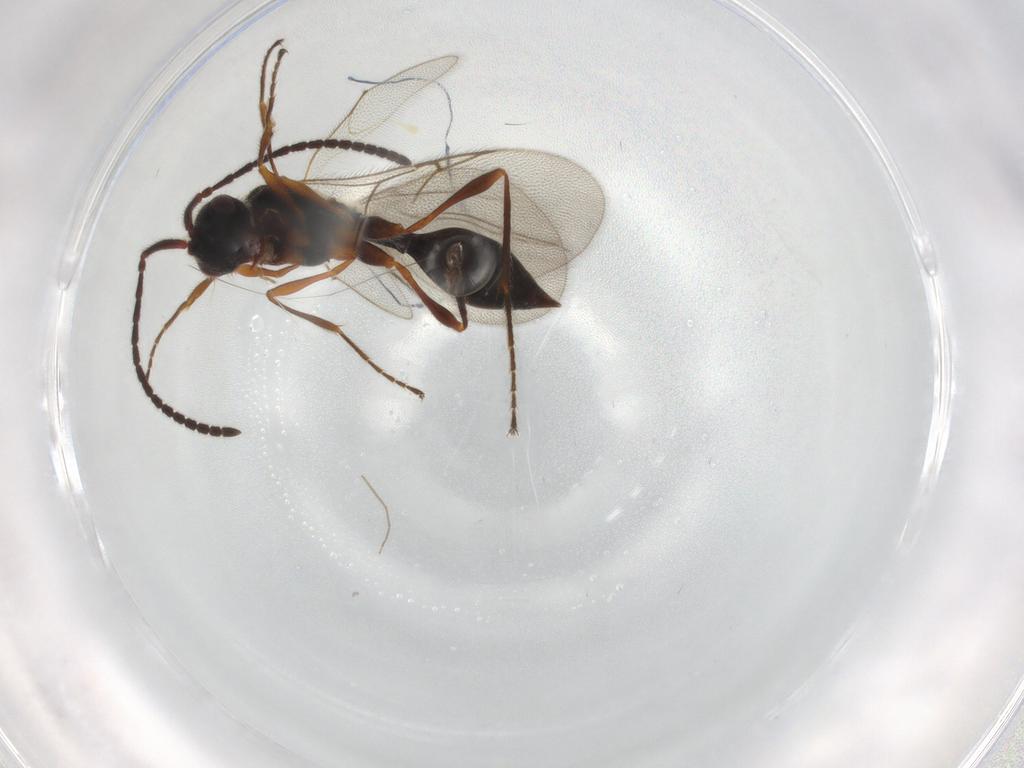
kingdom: Animalia
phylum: Arthropoda
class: Insecta
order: Hymenoptera
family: Diapriidae
